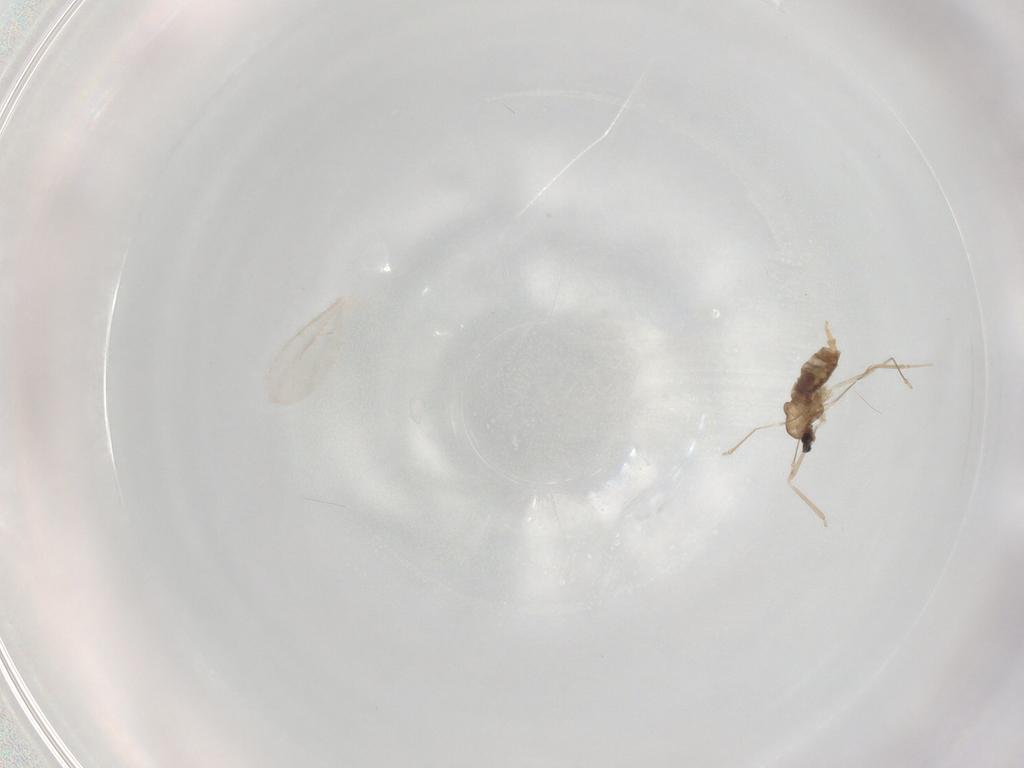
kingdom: Animalia
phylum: Arthropoda
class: Insecta
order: Diptera
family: Cecidomyiidae
